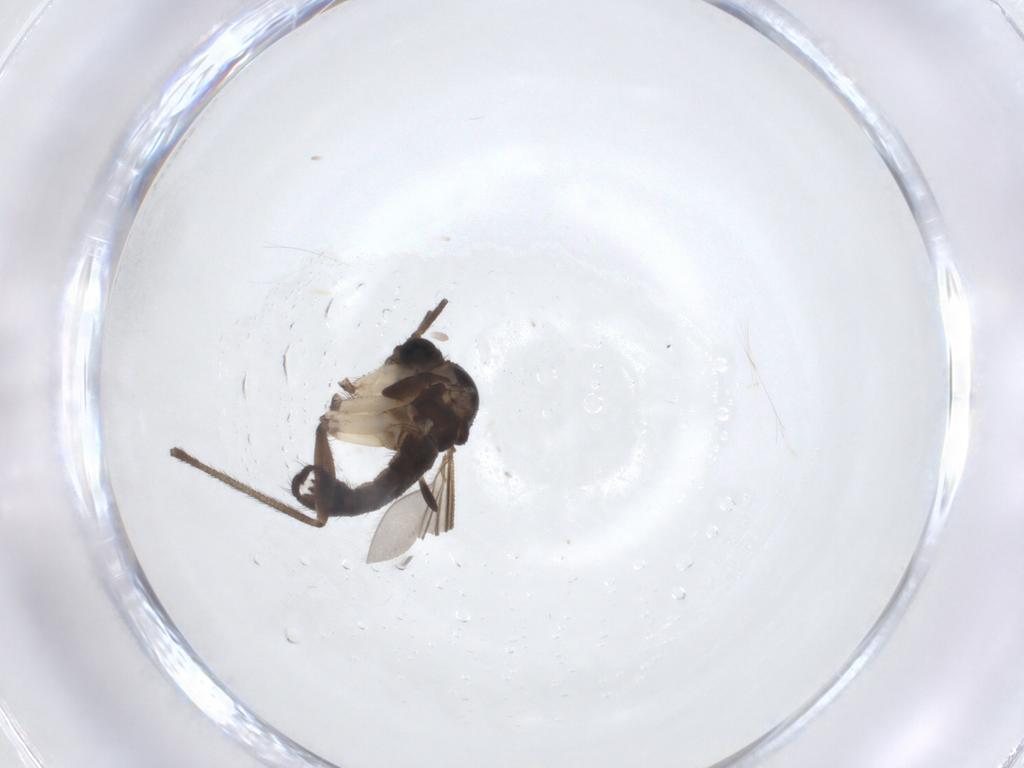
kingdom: Animalia
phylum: Arthropoda
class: Insecta
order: Diptera
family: Sciaridae
